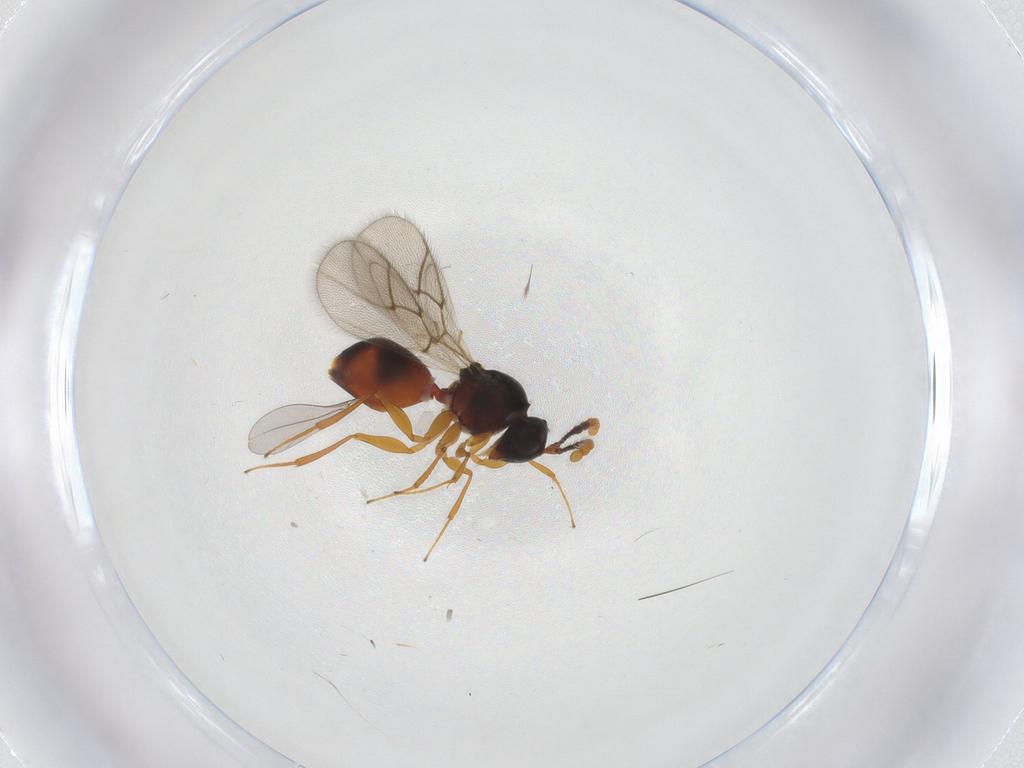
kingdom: Animalia
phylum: Arthropoda
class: Insecta
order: Hymenoptera
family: Figitidae
